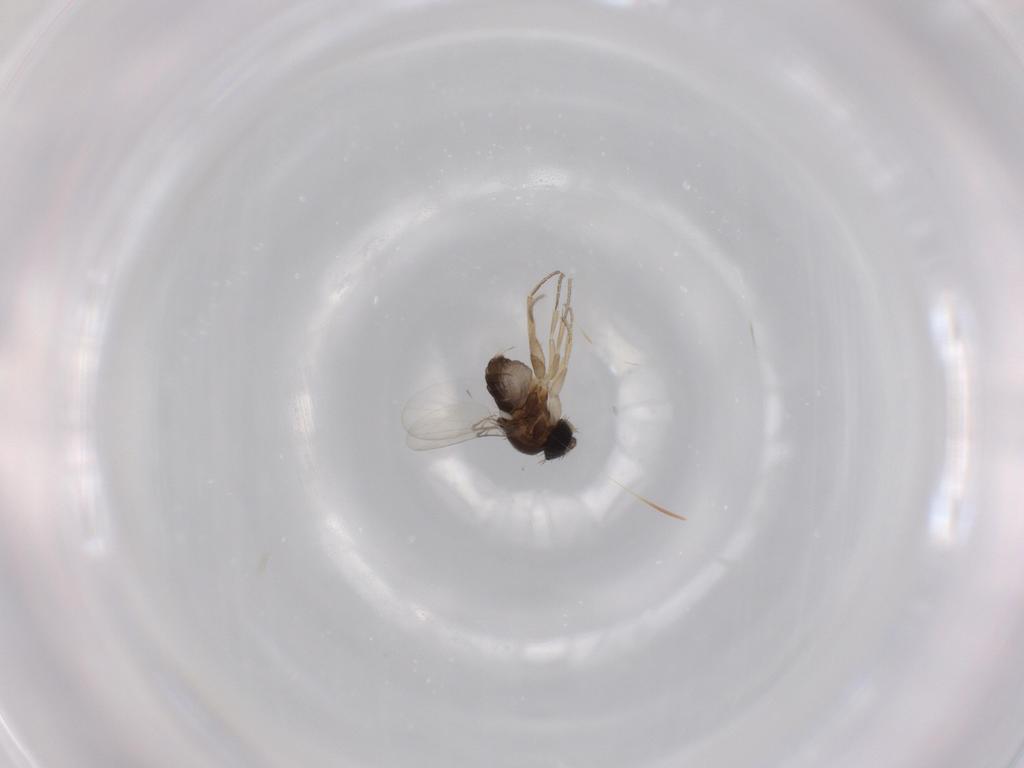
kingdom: Animalia
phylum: Arthropoda
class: Insecta
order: Diptera
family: Phoridae
